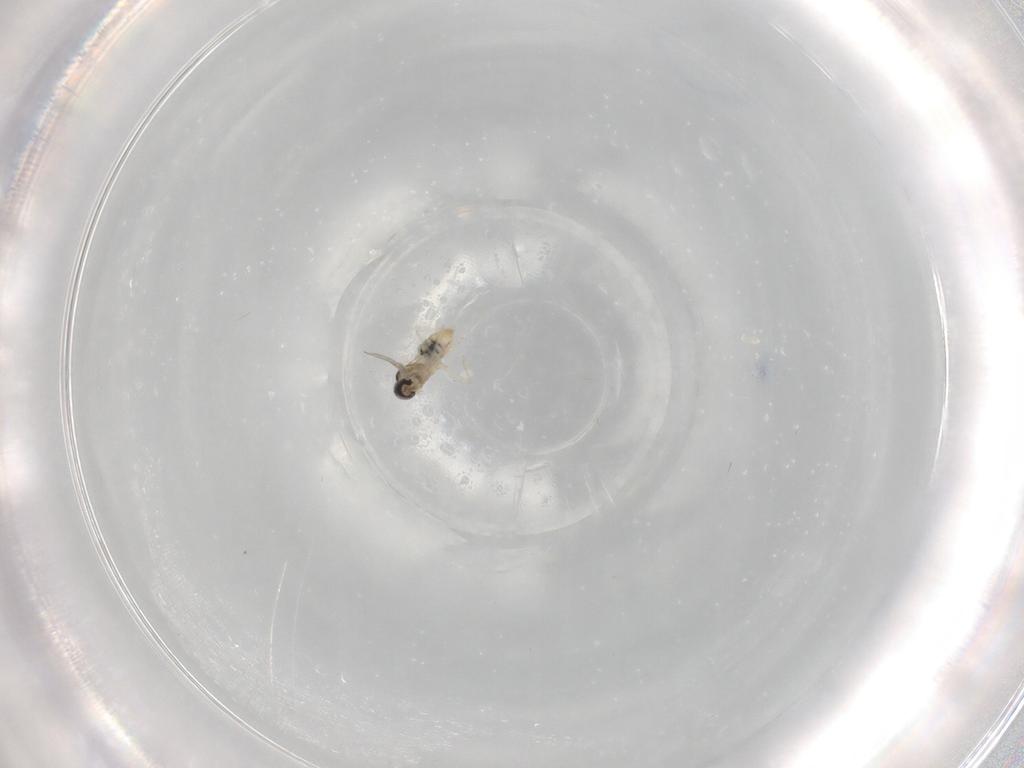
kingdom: Animalia
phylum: Arthropoda
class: Insecta
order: Diptera
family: Cecidomyiidae
